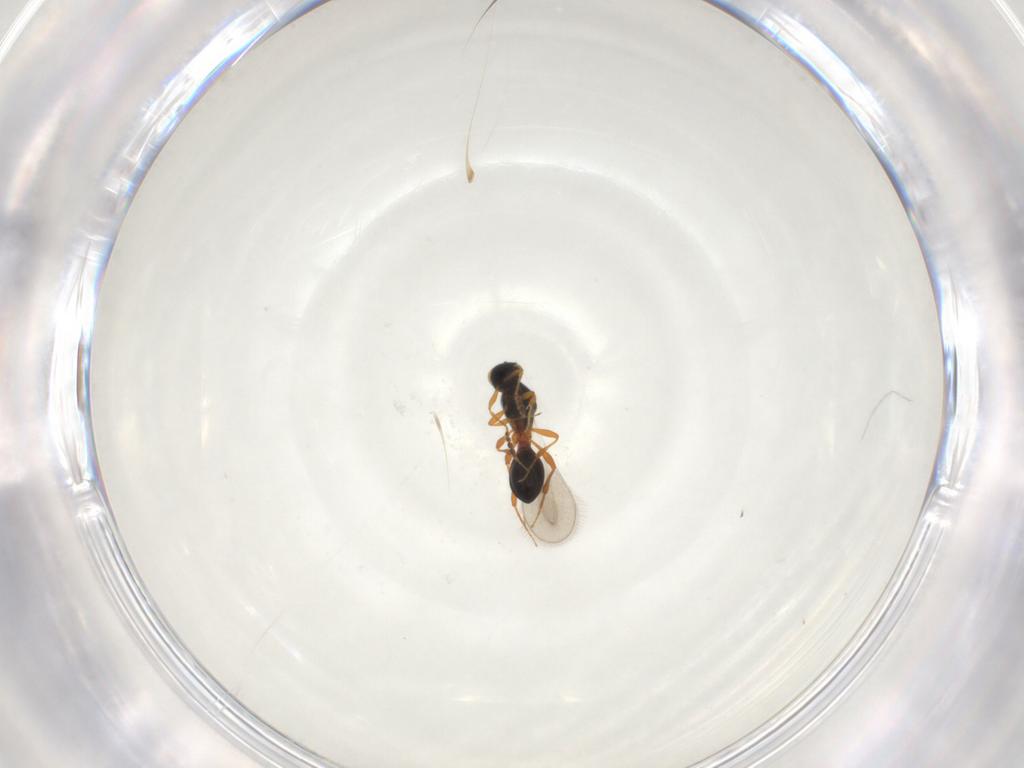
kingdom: Animalia
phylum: Arthropoda
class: Insecta
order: Hymenoptera
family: Platygastridae
